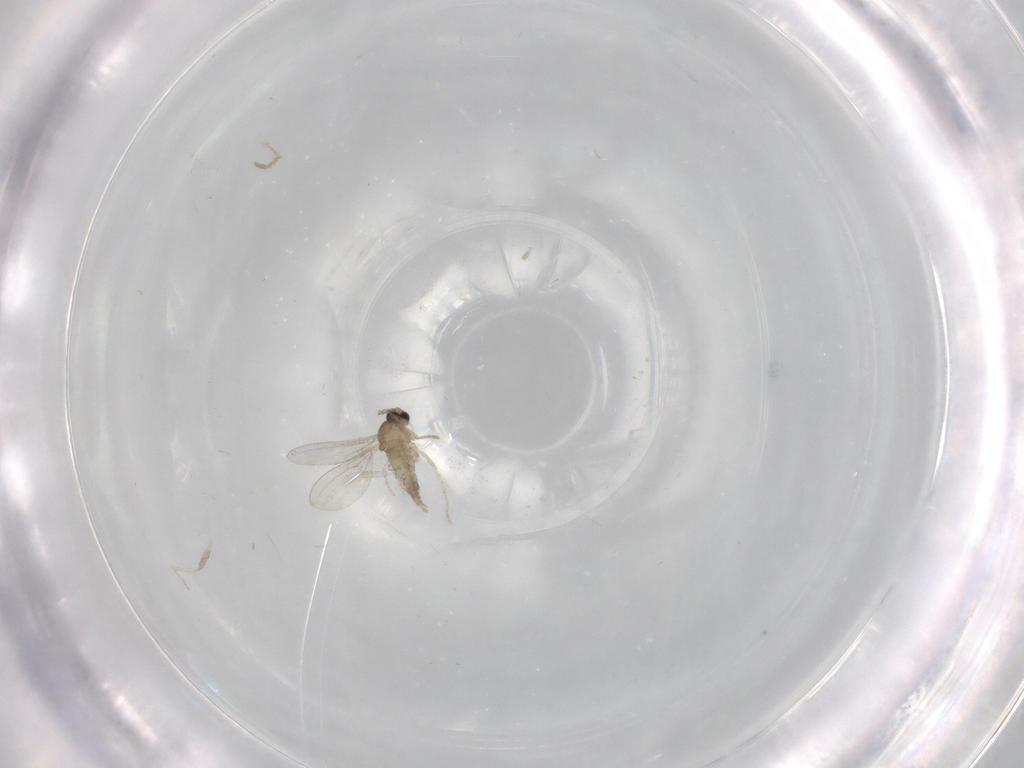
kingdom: Animalia
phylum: Arthropoda
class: Insecta
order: Diptera
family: Cecidomyiidae
